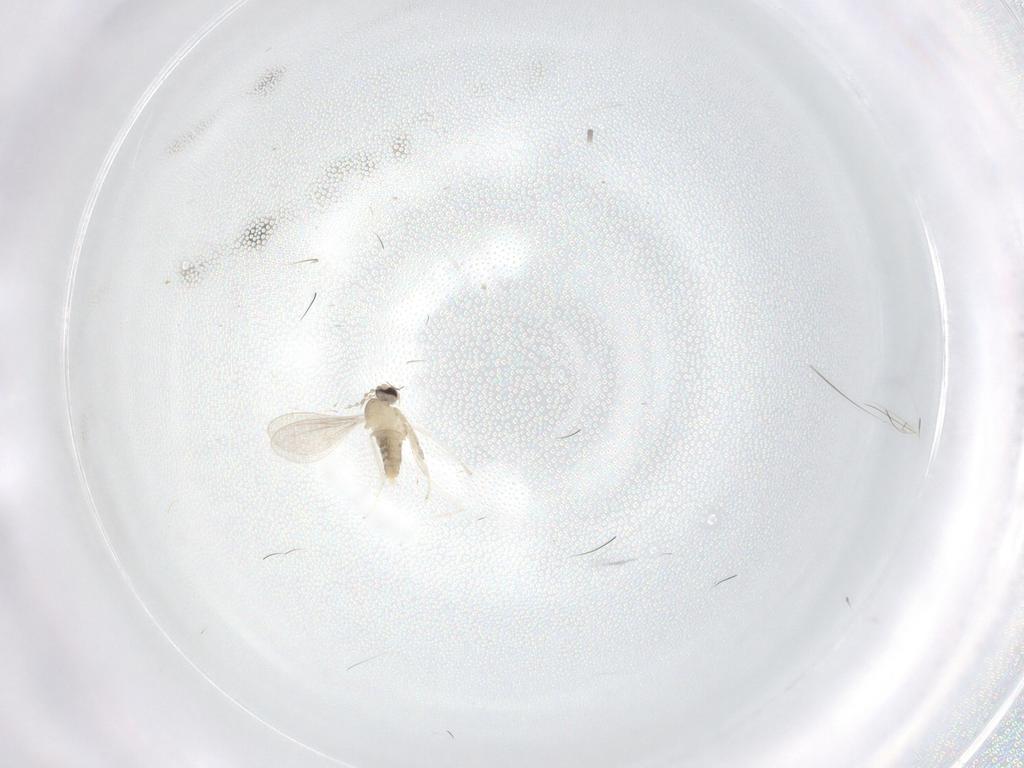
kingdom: Animalia
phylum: Arthropoda
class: Insecta
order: Diptera
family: Cecidomyiidae
